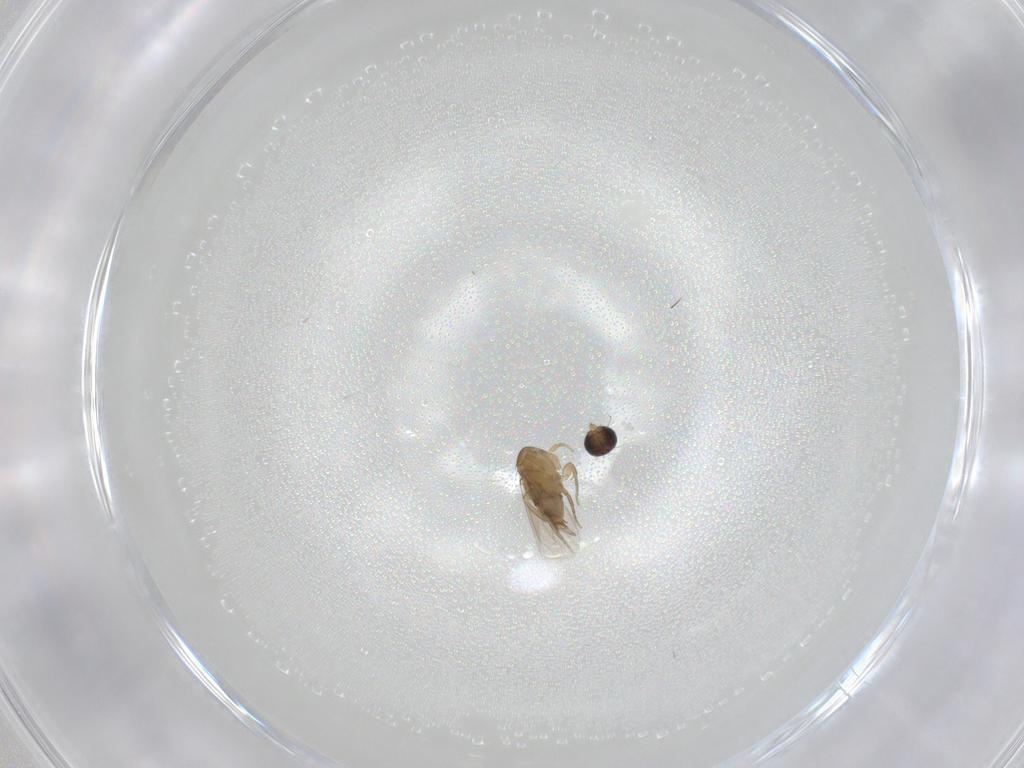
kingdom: Animalia
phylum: Arthropoda
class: Insecta
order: Diptera
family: Phoridae
